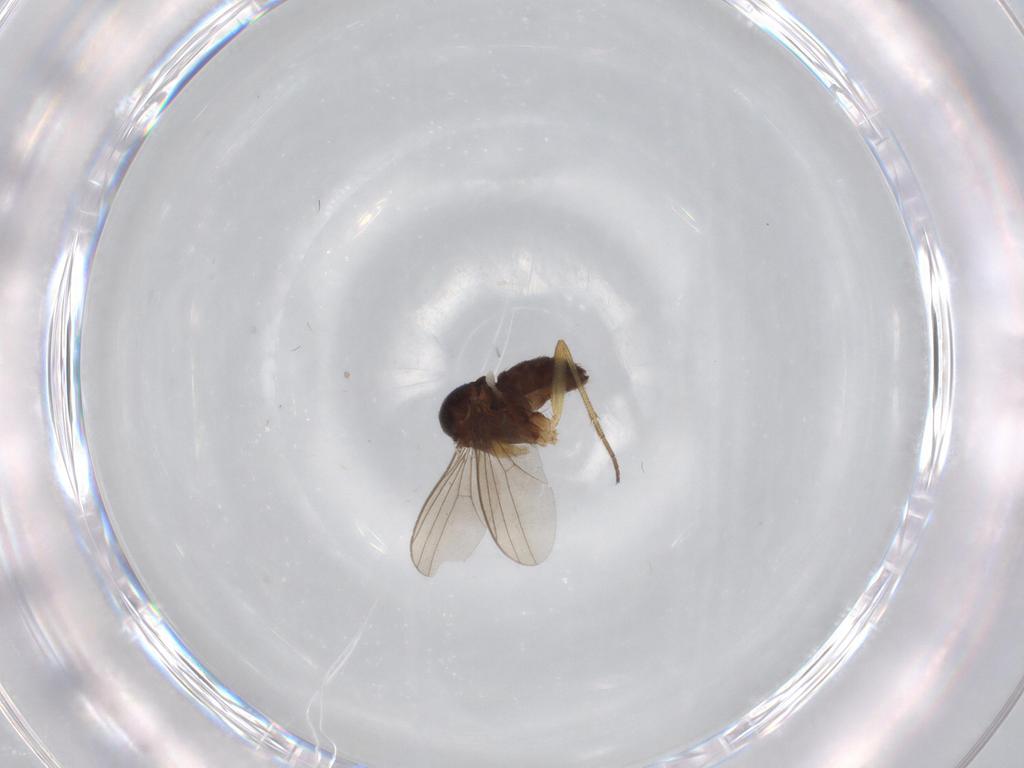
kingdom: Animalia
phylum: Arthropoda
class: Insecta
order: Diptera
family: Dolichopodidae
